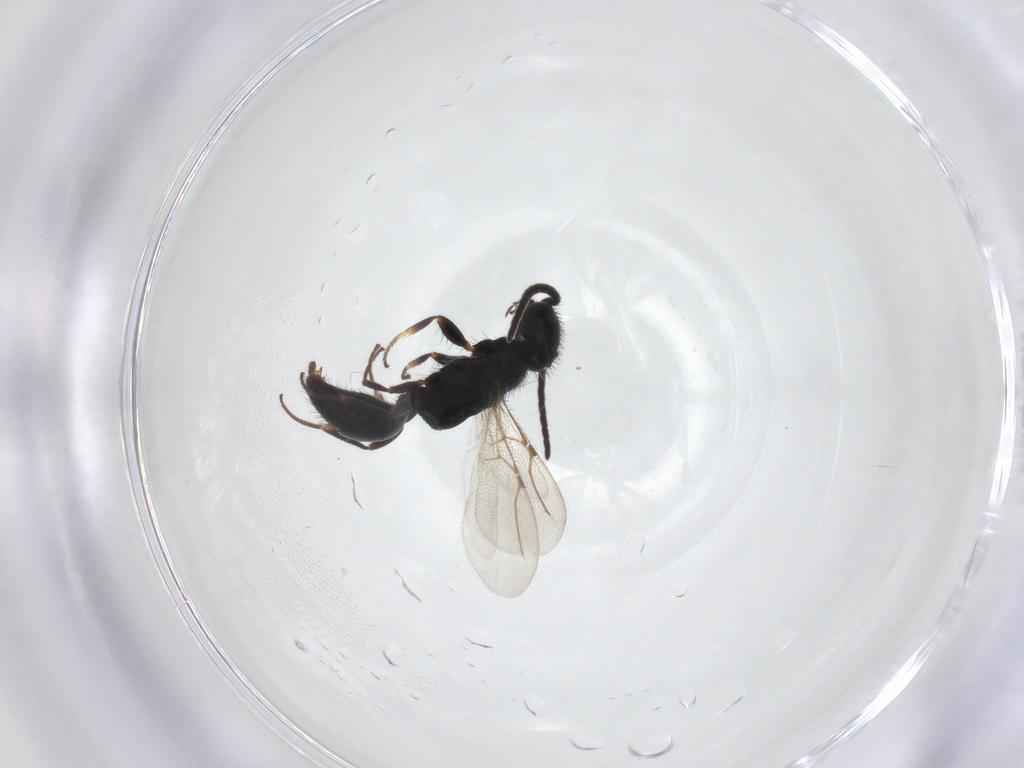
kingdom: Animalia
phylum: Arthropoda
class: Insecta
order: Hymenoptera
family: Bethylidae
